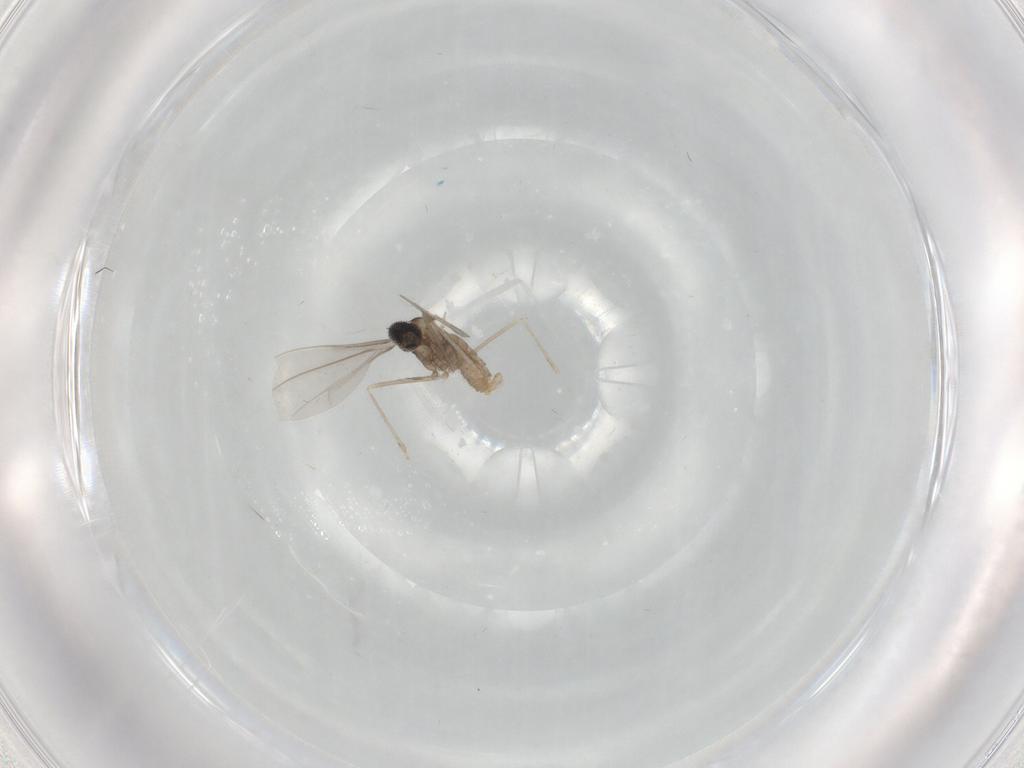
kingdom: Animalia
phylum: Arthropoda
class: Insecta
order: Diptera
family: Cecidomyiidae
